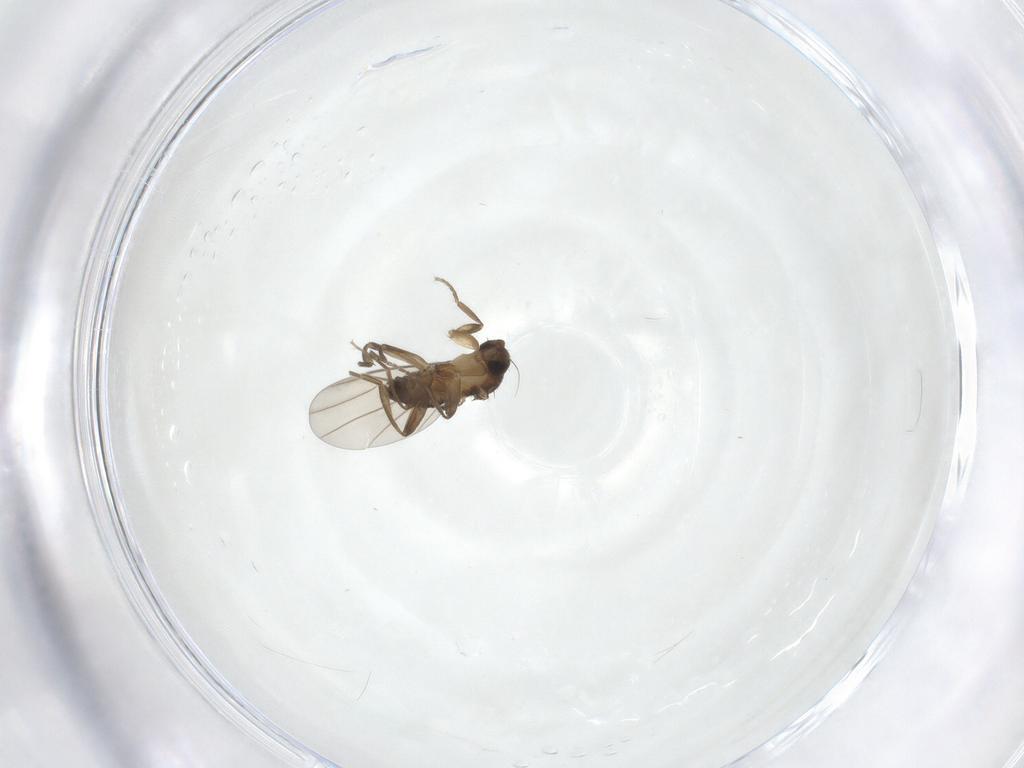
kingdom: Animalia
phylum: Arthropoda
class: Insecta
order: Diptera
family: Phoridae
